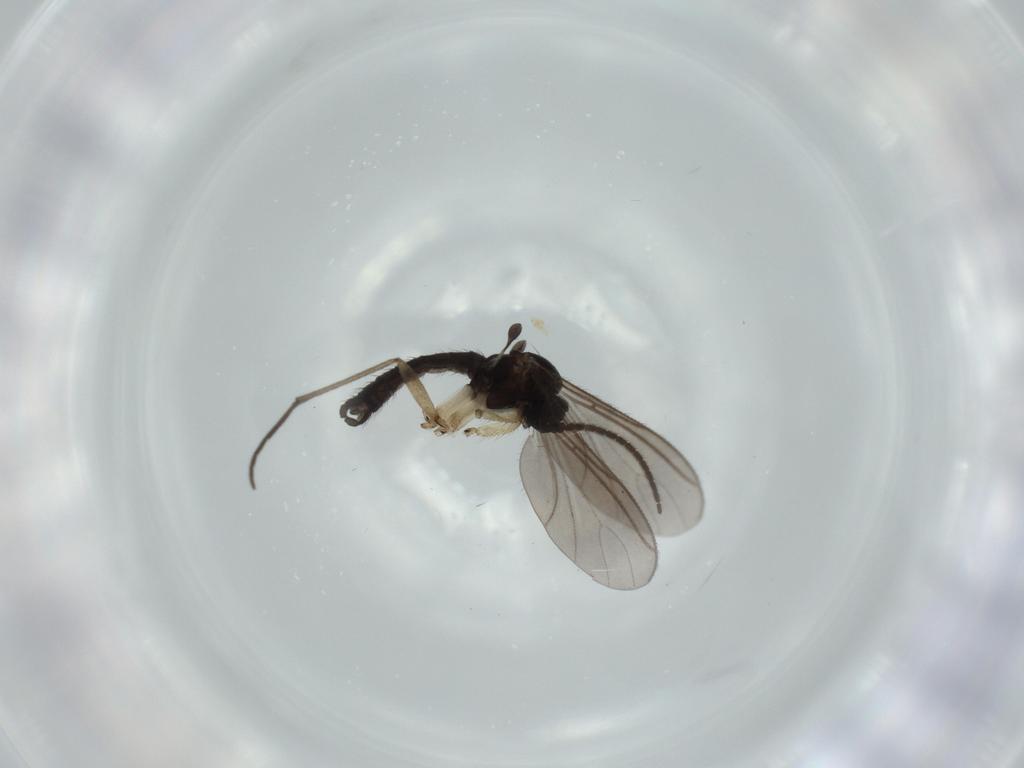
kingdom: Animalia
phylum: Arthropoda
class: Insecta
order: Diptera
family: Sciaridae
